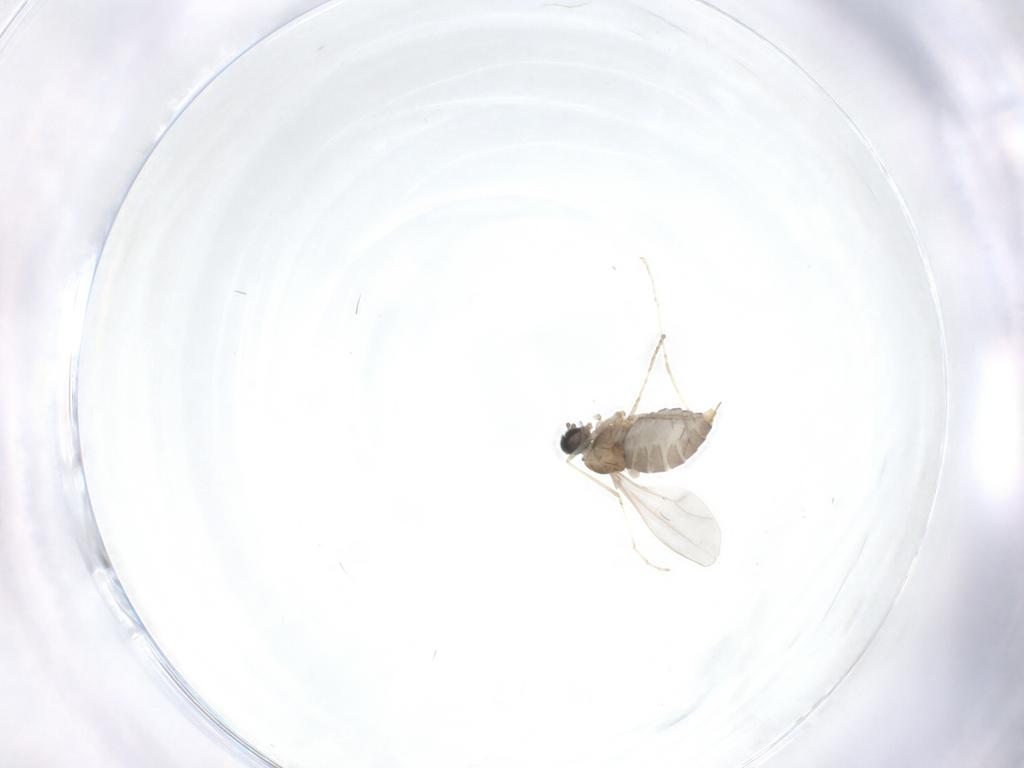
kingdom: Animalia
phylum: Arthropoda
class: Insecta
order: Diptera
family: Cecidomyiidae
